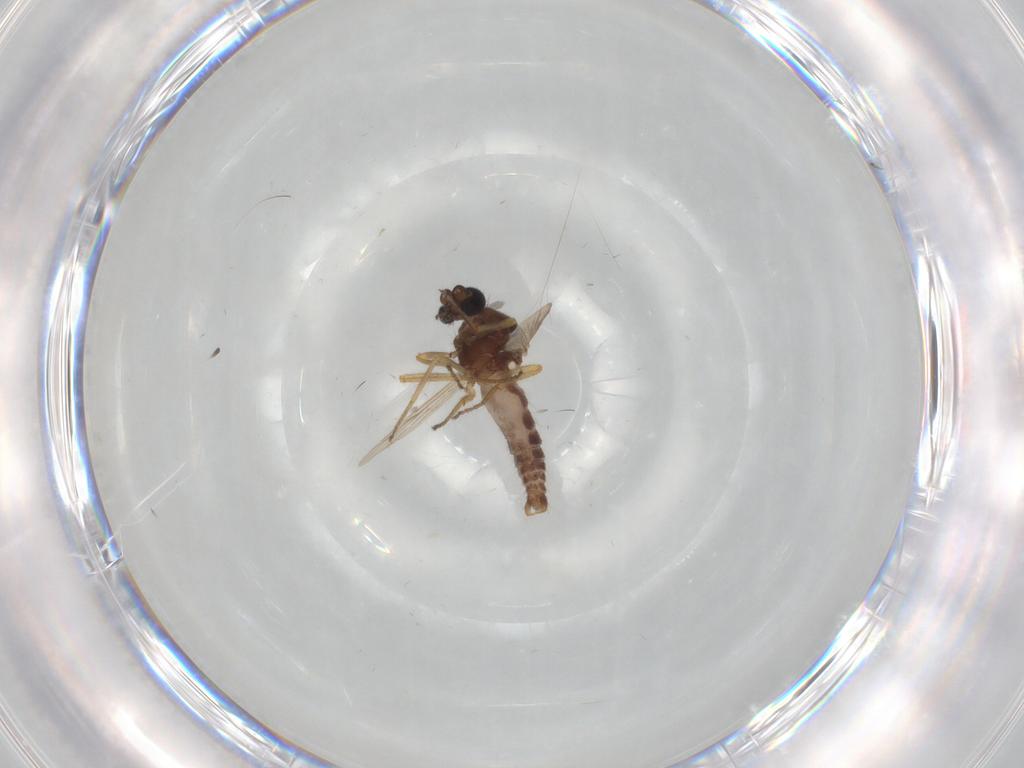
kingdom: Animalia
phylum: Arthropoda
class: Insecta
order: Diptera
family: Ceratopogonidae
